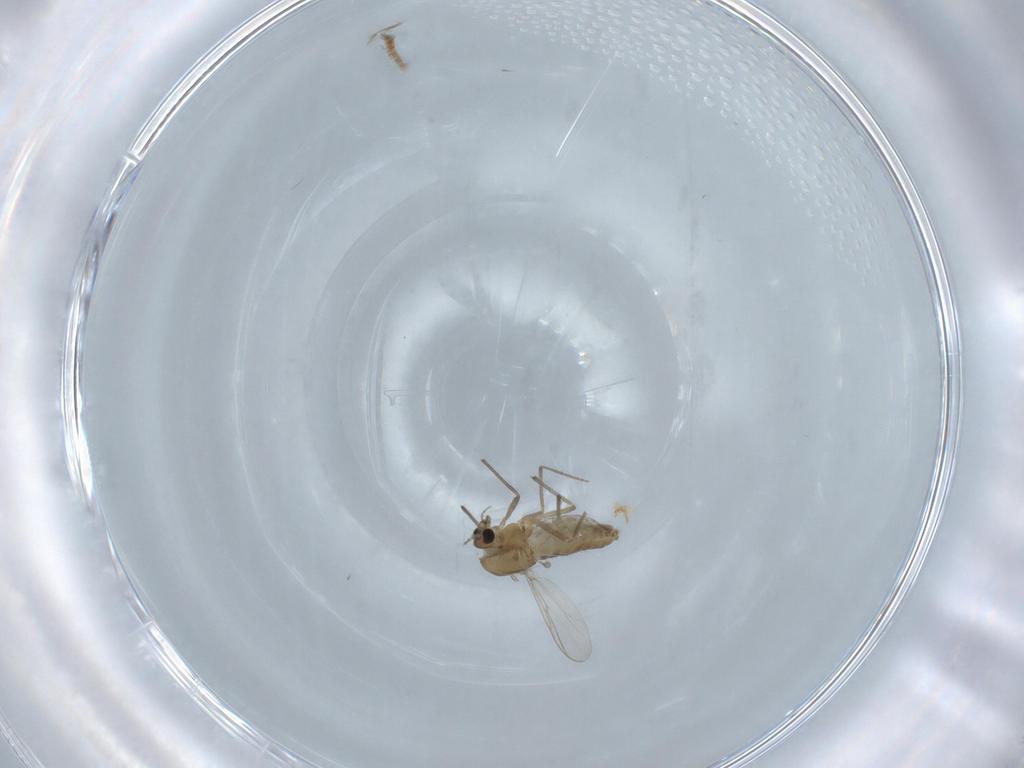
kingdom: Animalia
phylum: Arthropoda
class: Insecta
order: Diptera
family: Chironomidae
